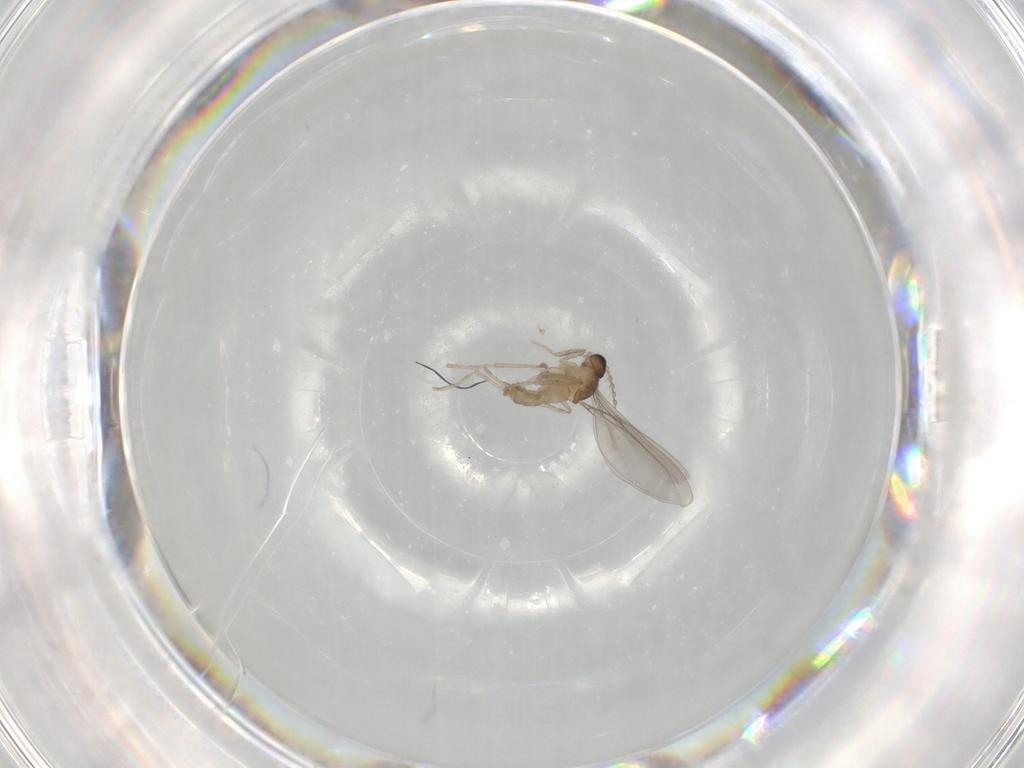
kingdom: Animalia
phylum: Arthropoda
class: Insecta
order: Diptera
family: Cecidomyiidae
